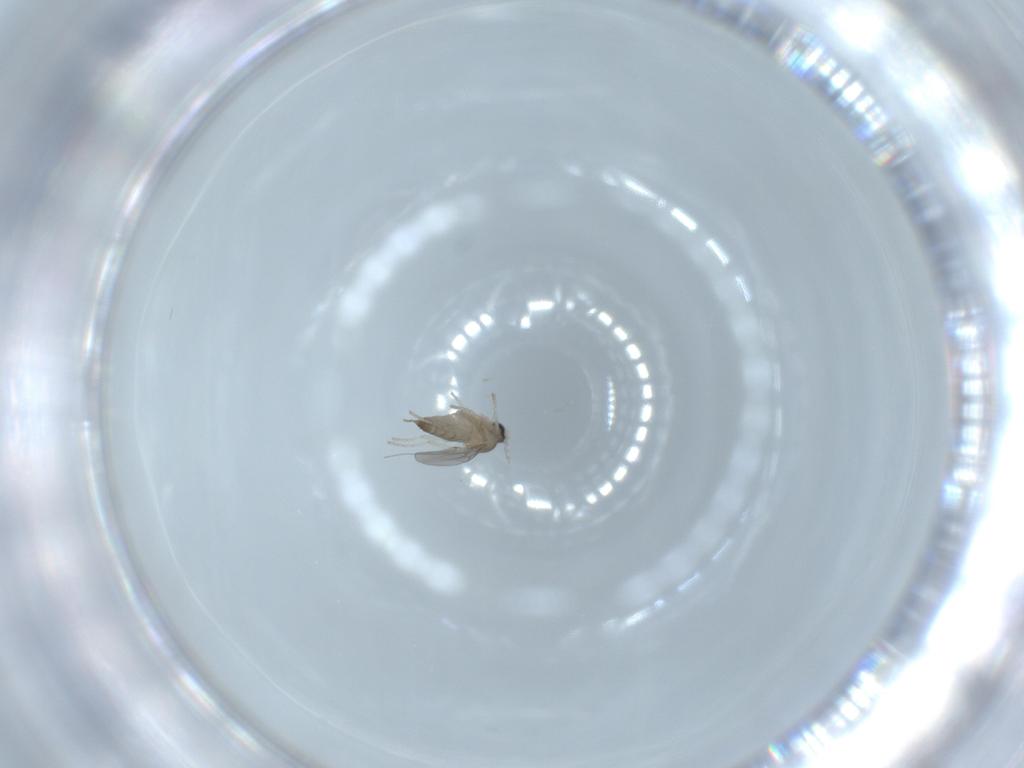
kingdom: Animalia
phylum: Arthropoda
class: Insecta
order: Diptera
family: Cecidomyiidae
